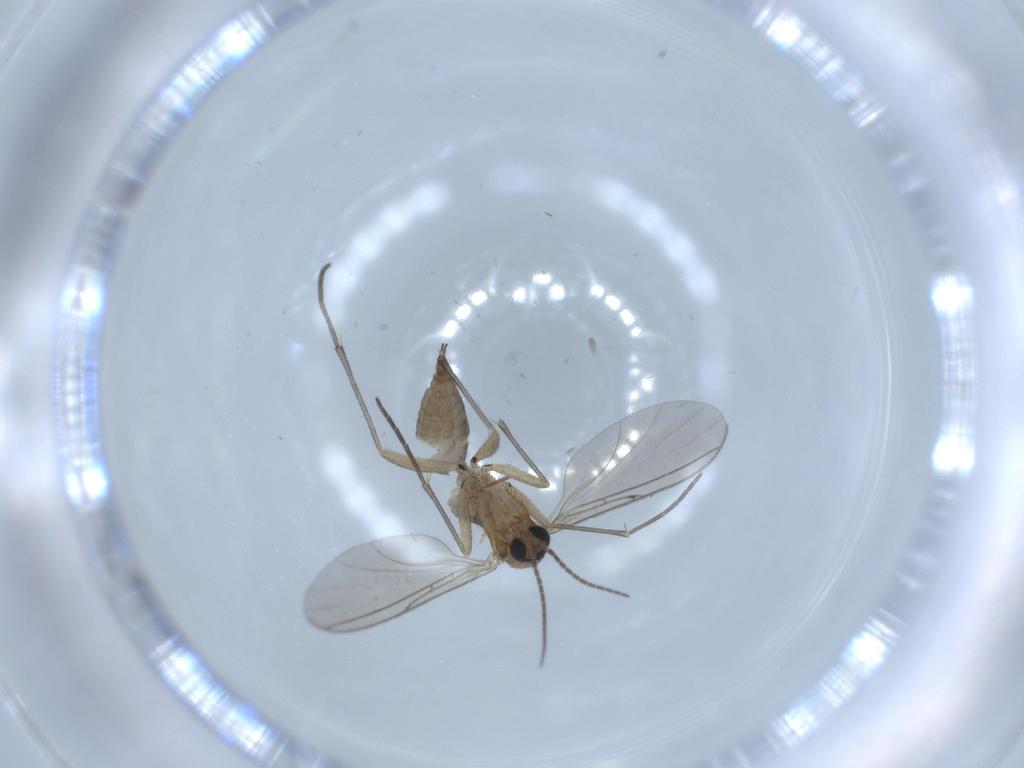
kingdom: Animalia
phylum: Arthropoda
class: Insecta
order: Diptera
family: Sciaridae
